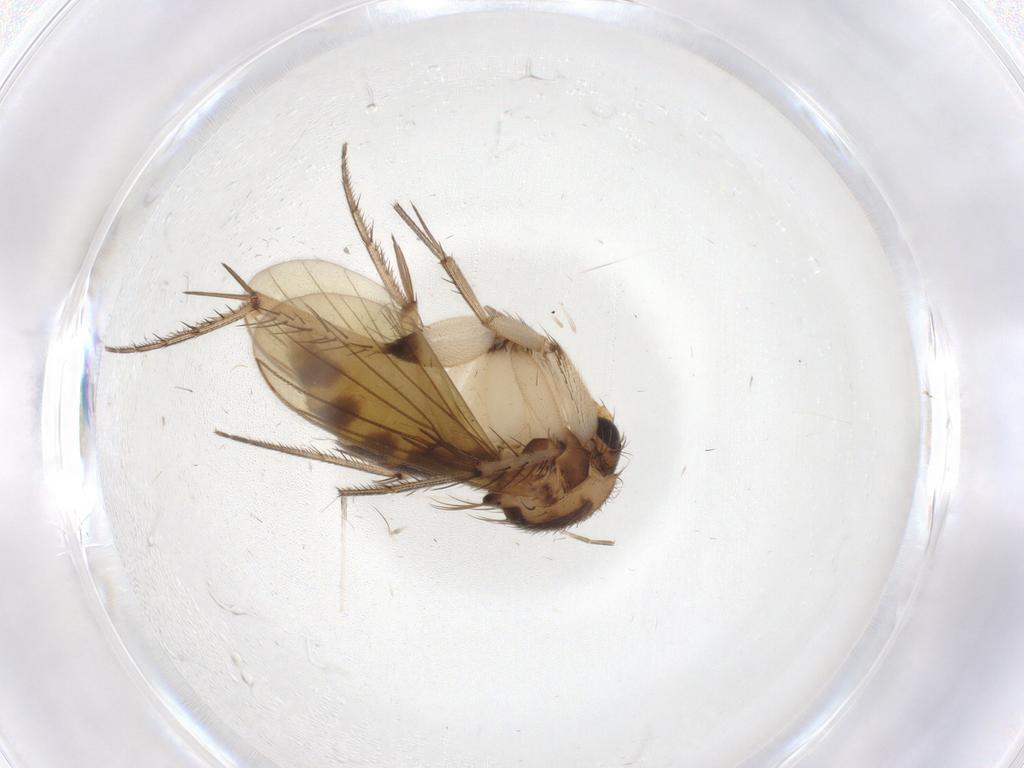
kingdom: Animalia
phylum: Arthropoda
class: Insecta
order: Diptera
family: Mycetophilidae
